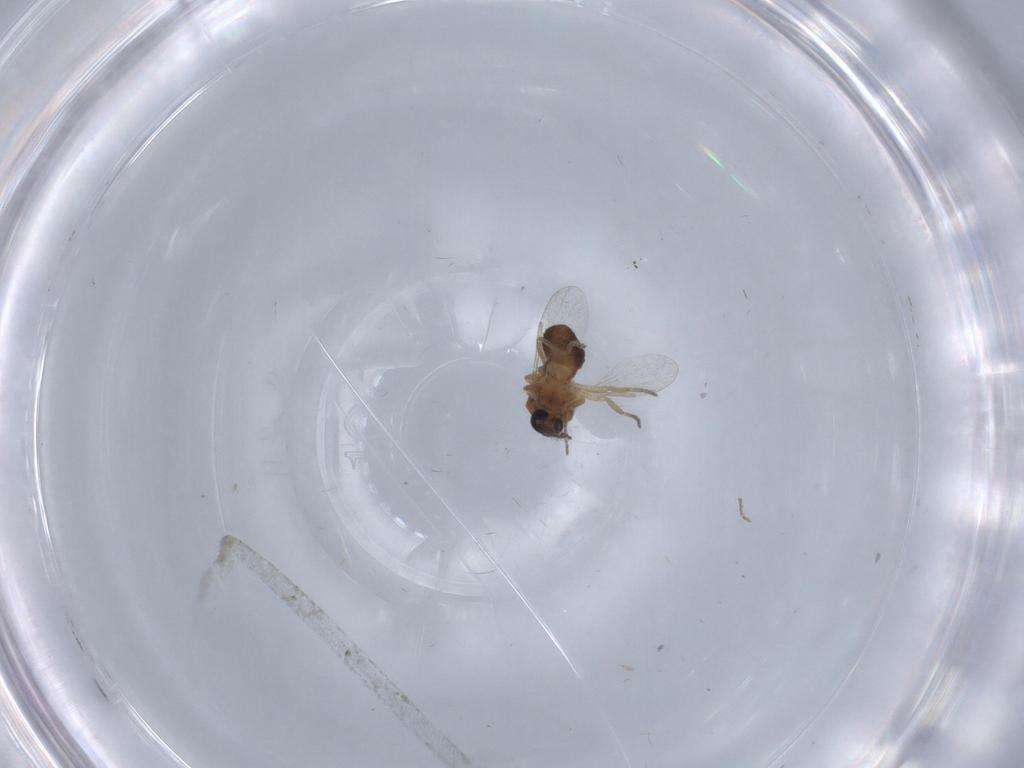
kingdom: Animalia
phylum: Arthropoda
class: Insecta
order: Diptera
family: Ceratopogonidae
